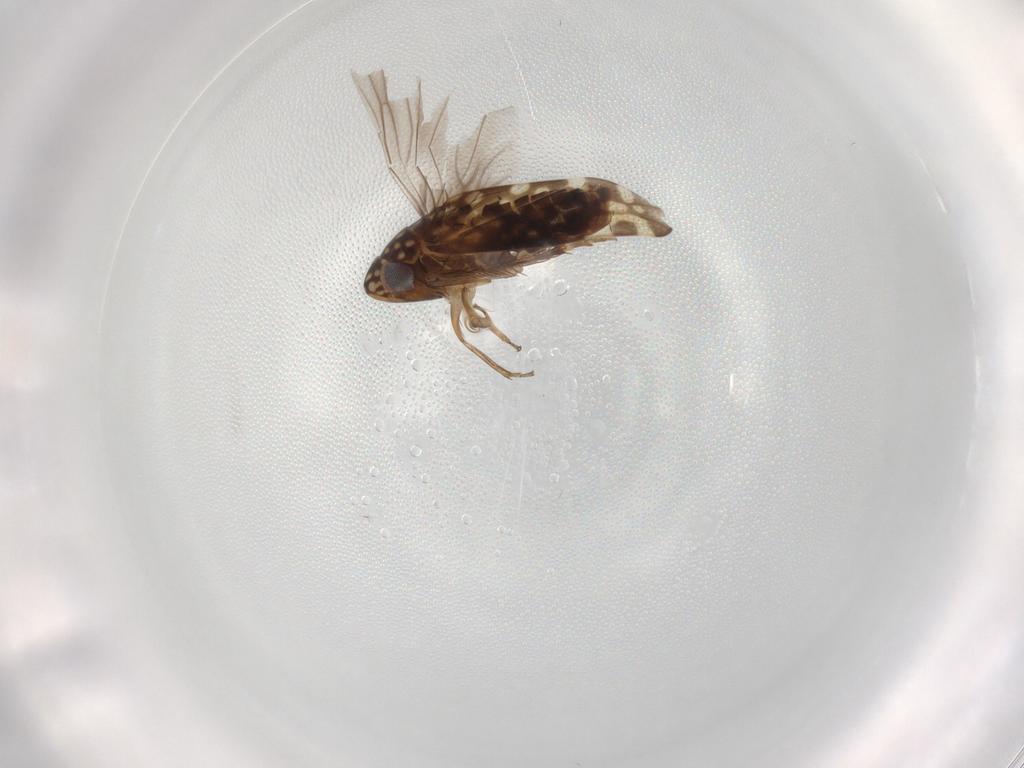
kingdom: Animalia
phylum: Arthropoda
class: Insecta
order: Hemiptera
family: Cicadellidae
